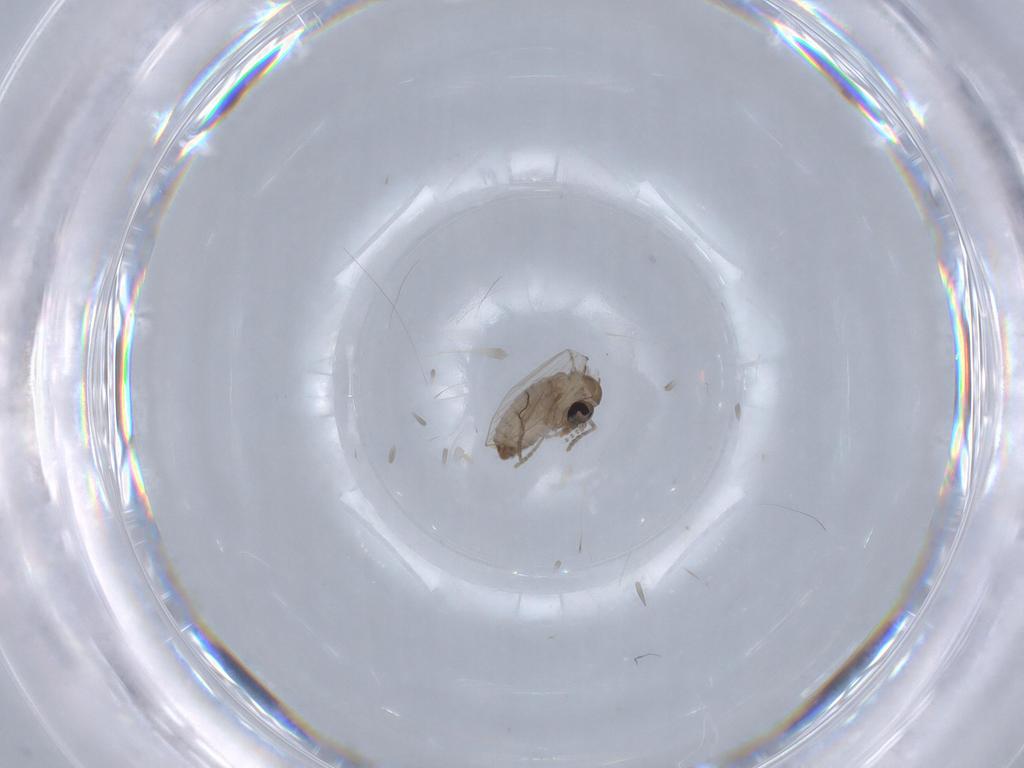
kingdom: Animalia
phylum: Arthropoda
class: Insecta
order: Diptera
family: Psychodidae
